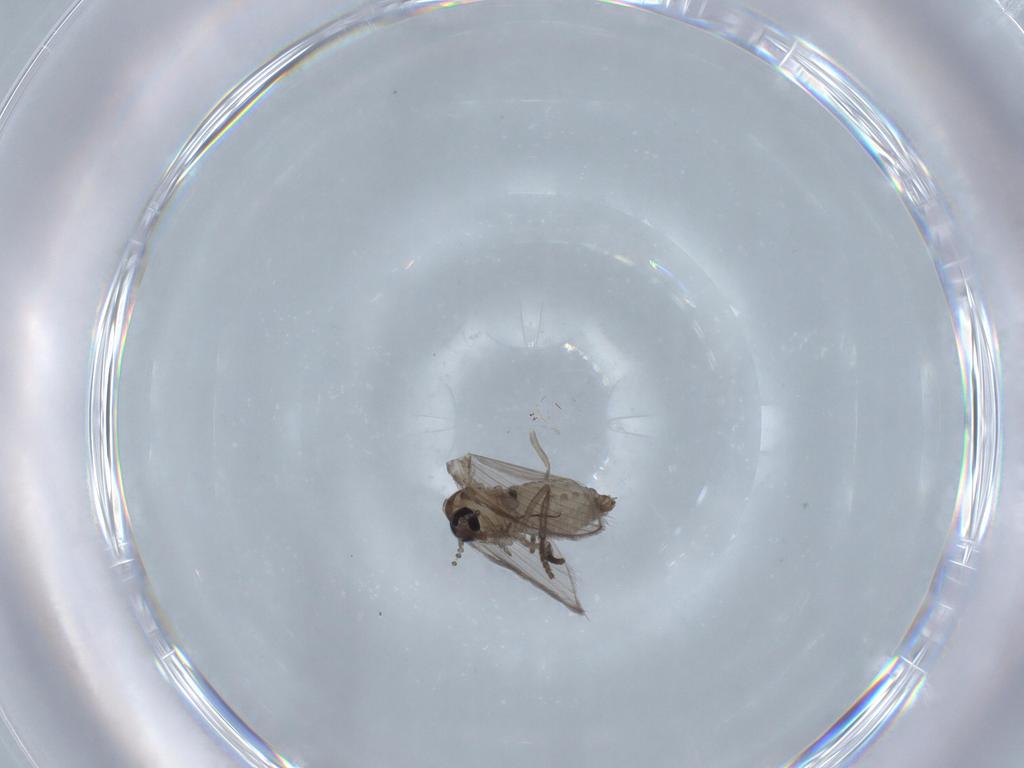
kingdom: Animalia
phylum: Arthropoda
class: Insecta
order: Diptera
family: Psychodidae
